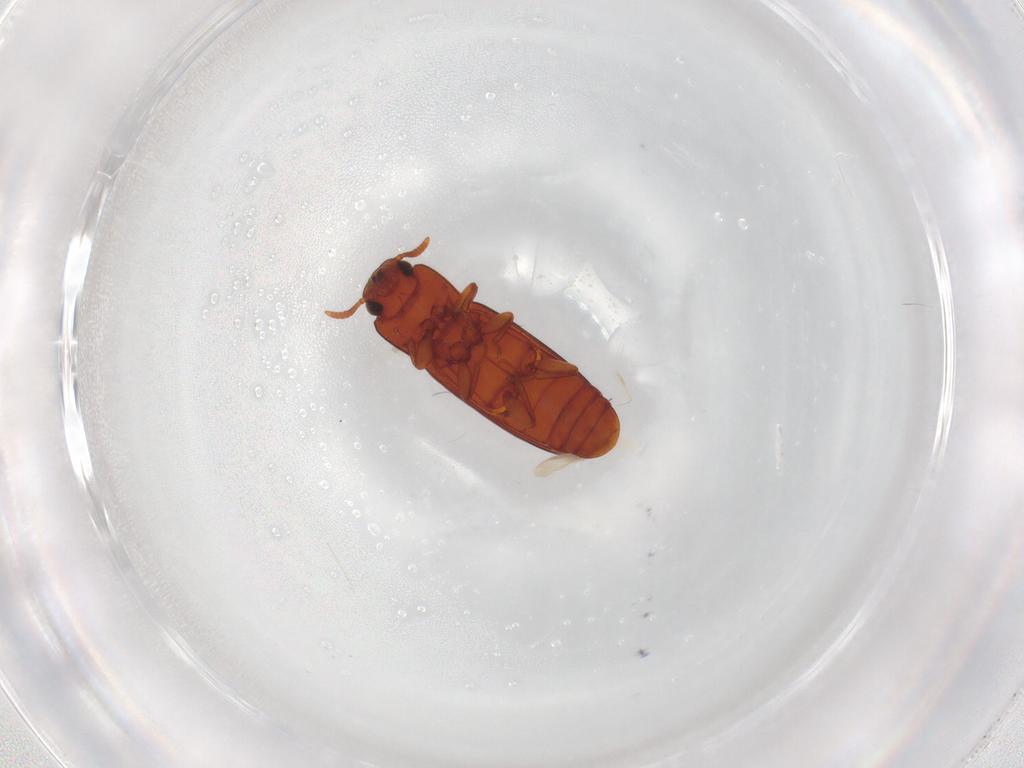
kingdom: Animalia
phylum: Arthropoda
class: Insecta
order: Coleoptera
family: Tenebrionidae
